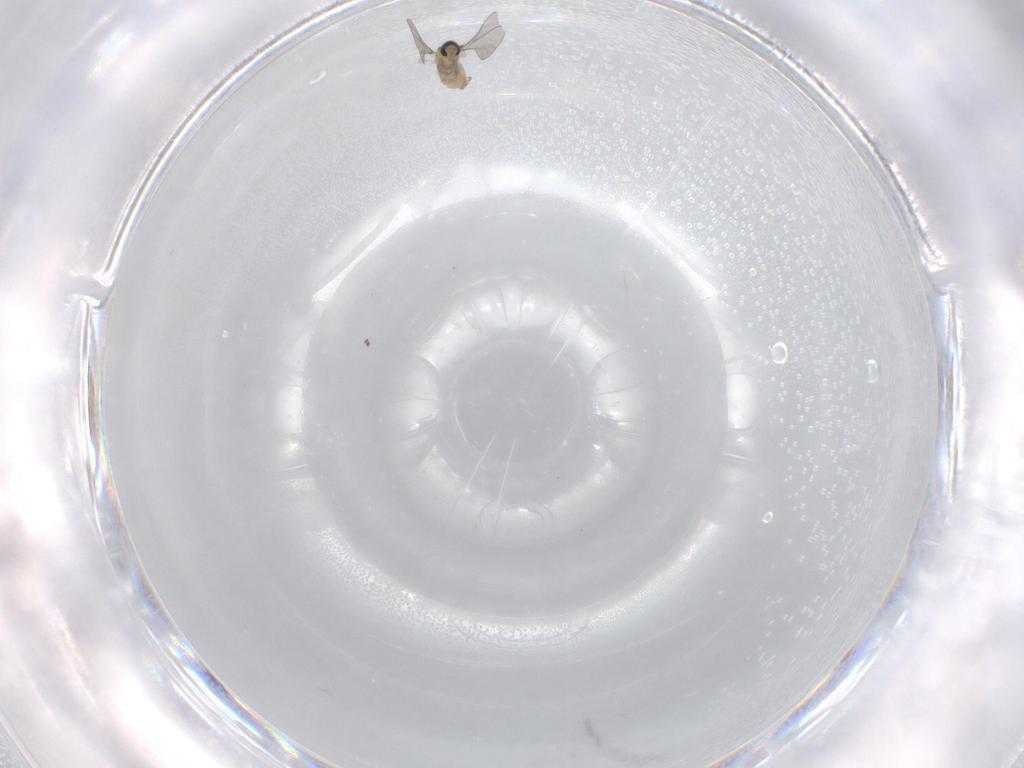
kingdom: Animalia
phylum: Arthropoda
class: Insecta
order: Diptera
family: Cecidomyiidae
